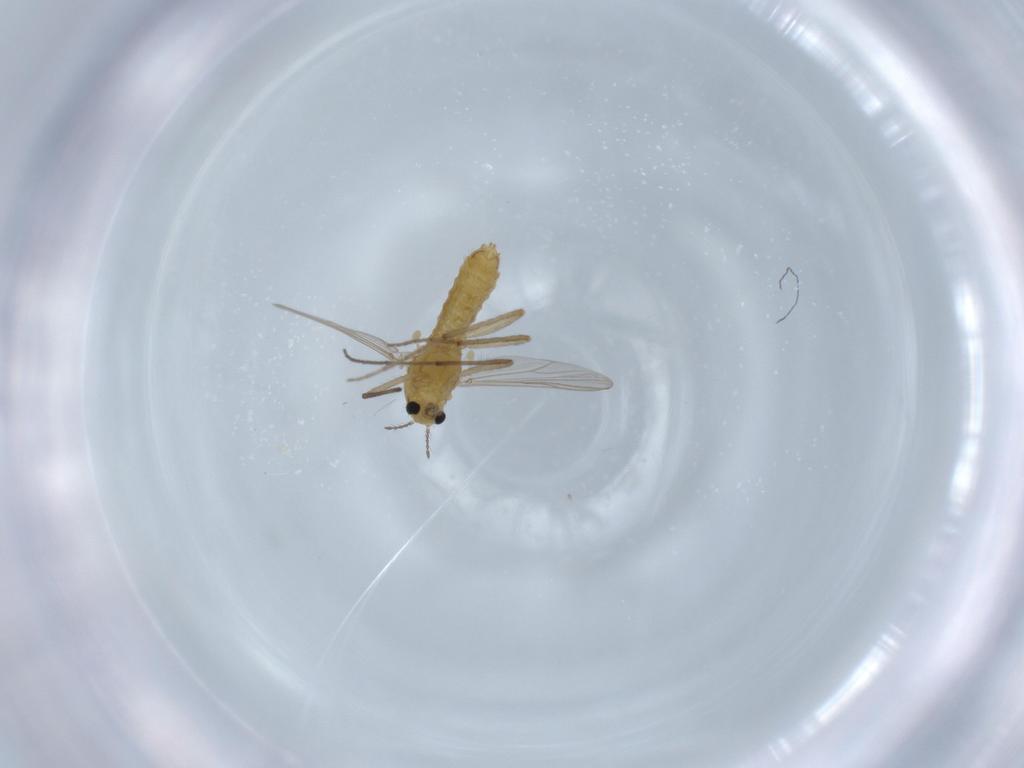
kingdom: Animalia
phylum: Arthropoda
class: Insecta
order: Diptera
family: Chironomidae
